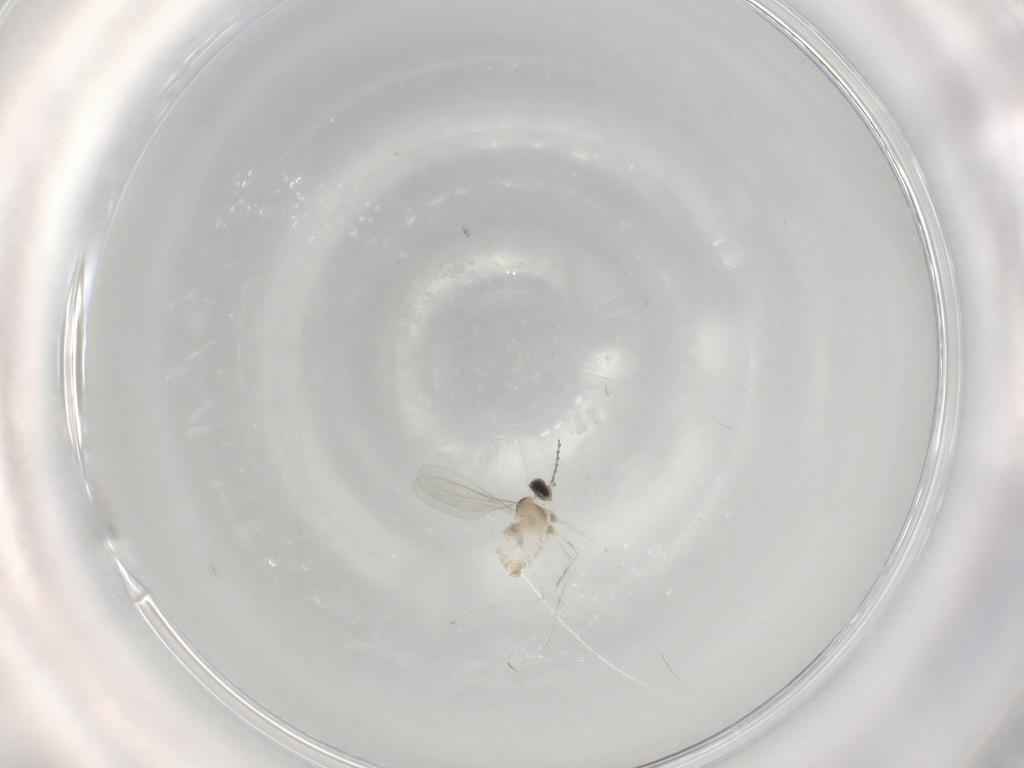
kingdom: Animalia
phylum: Arthropoda
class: Insecta
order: Diptera
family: Cecidomyiidae
